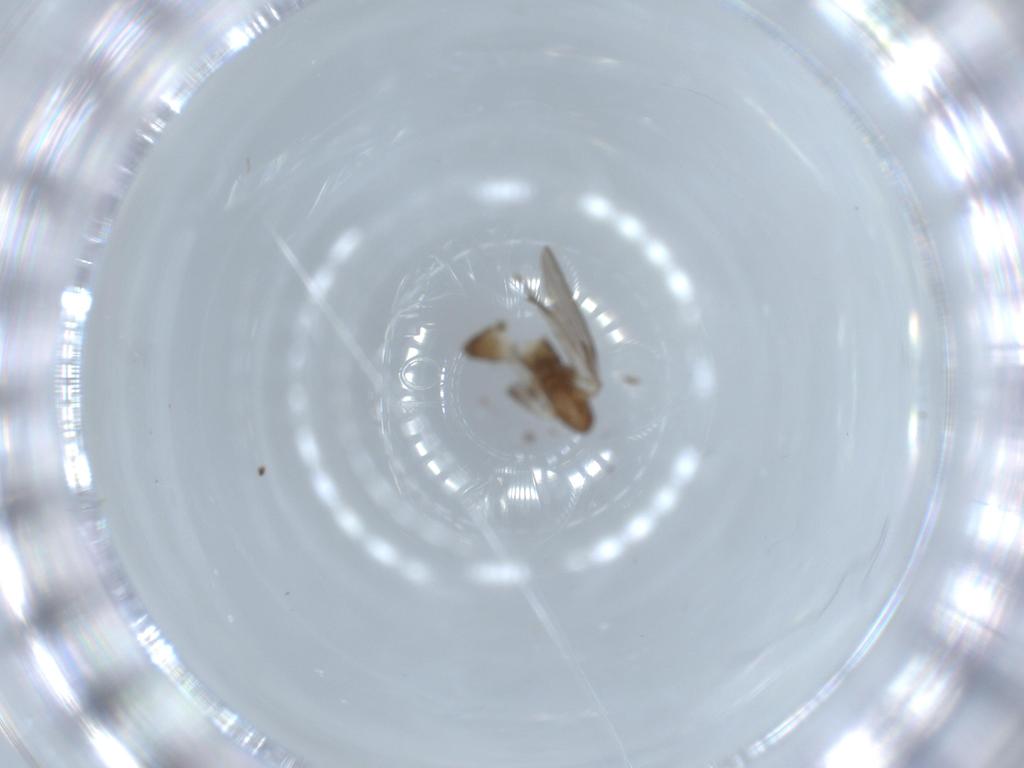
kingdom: Animalia
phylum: Arthropoda
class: Insecta
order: Diptera
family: Psychodidae
